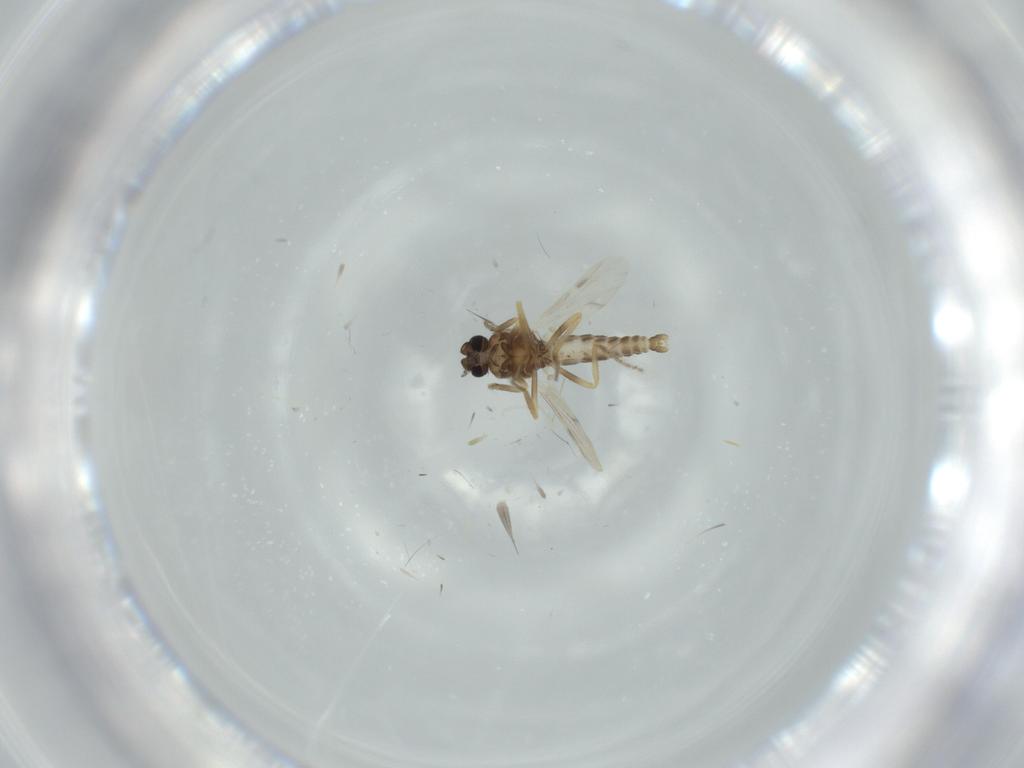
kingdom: Animalia
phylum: Arthropoda
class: Insecta
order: Diptera
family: Ceratopogonidae
